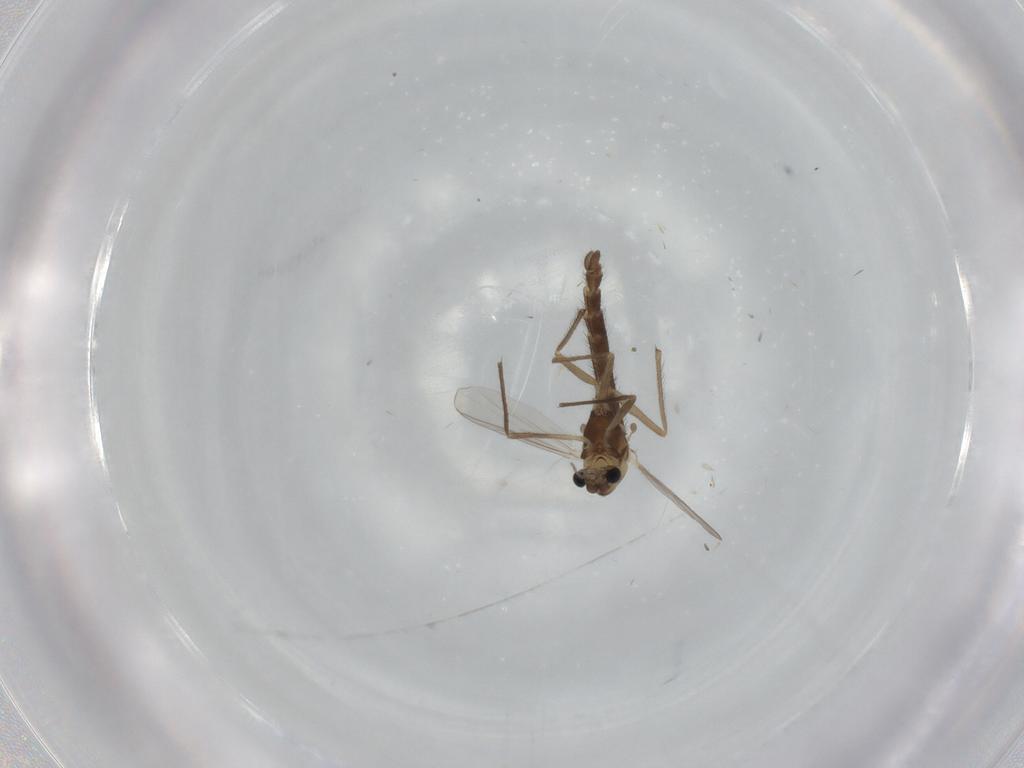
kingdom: Animalia
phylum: Arthropoda
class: Insecta
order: Diptera
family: Chironomidae
